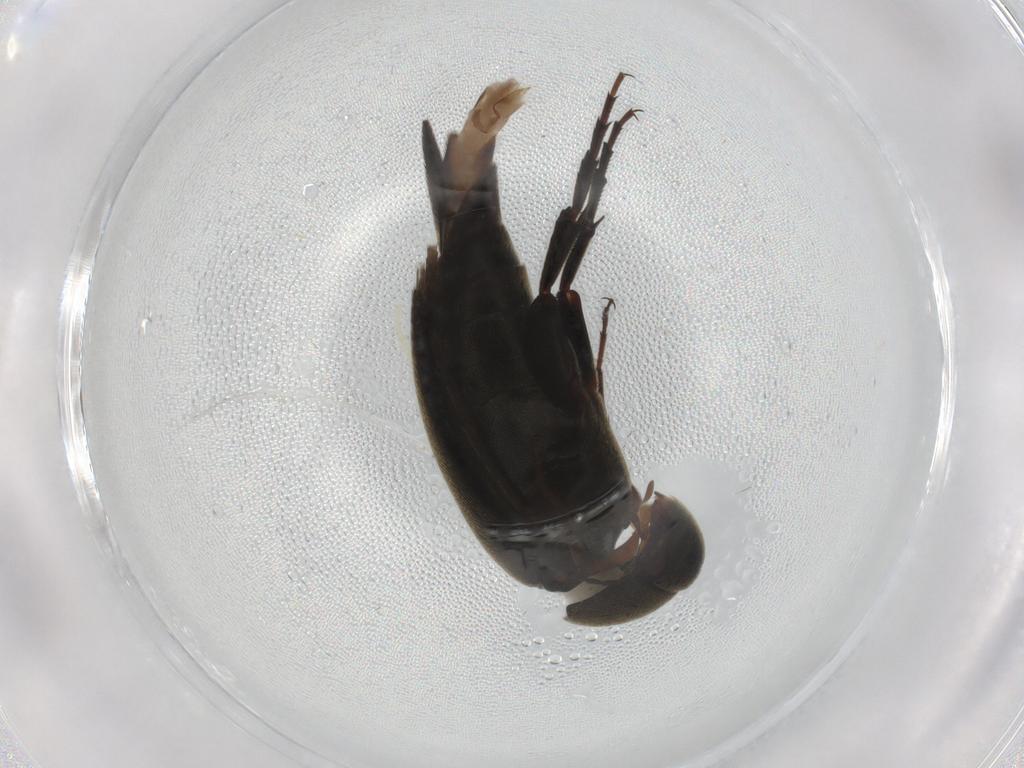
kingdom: Animalia
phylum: Arthropoda
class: Insecta
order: Coleoptera
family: Mordellidae
